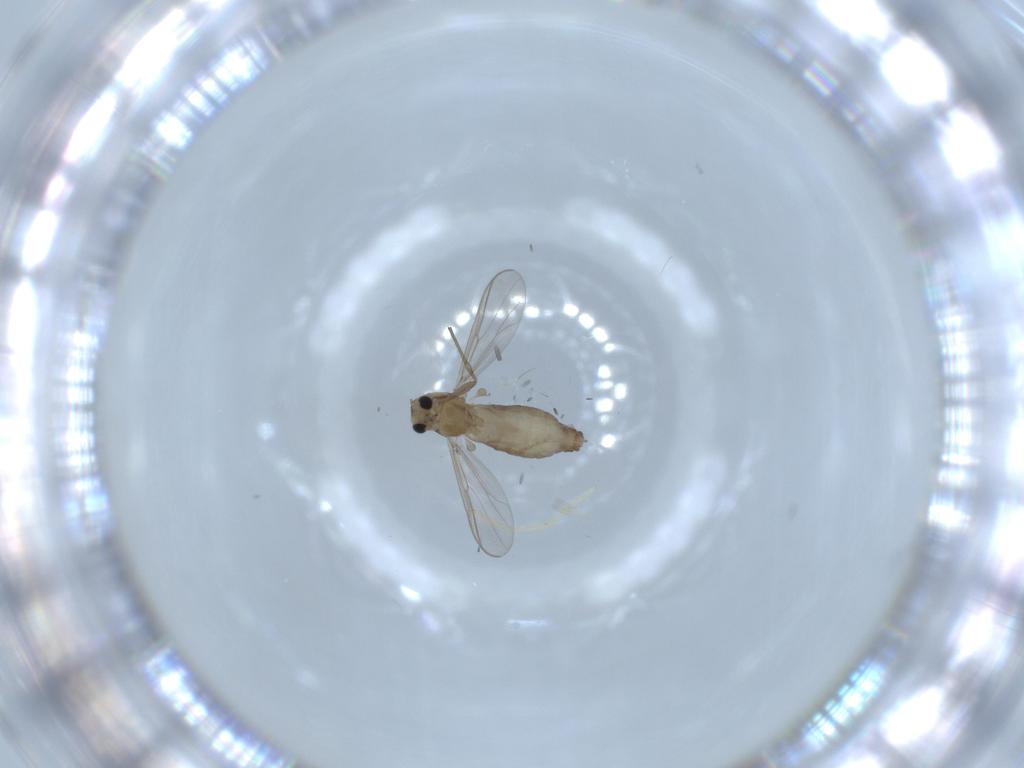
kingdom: Animalia
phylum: Arthropoda
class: Insecta
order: Diptera
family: Chironomidae
